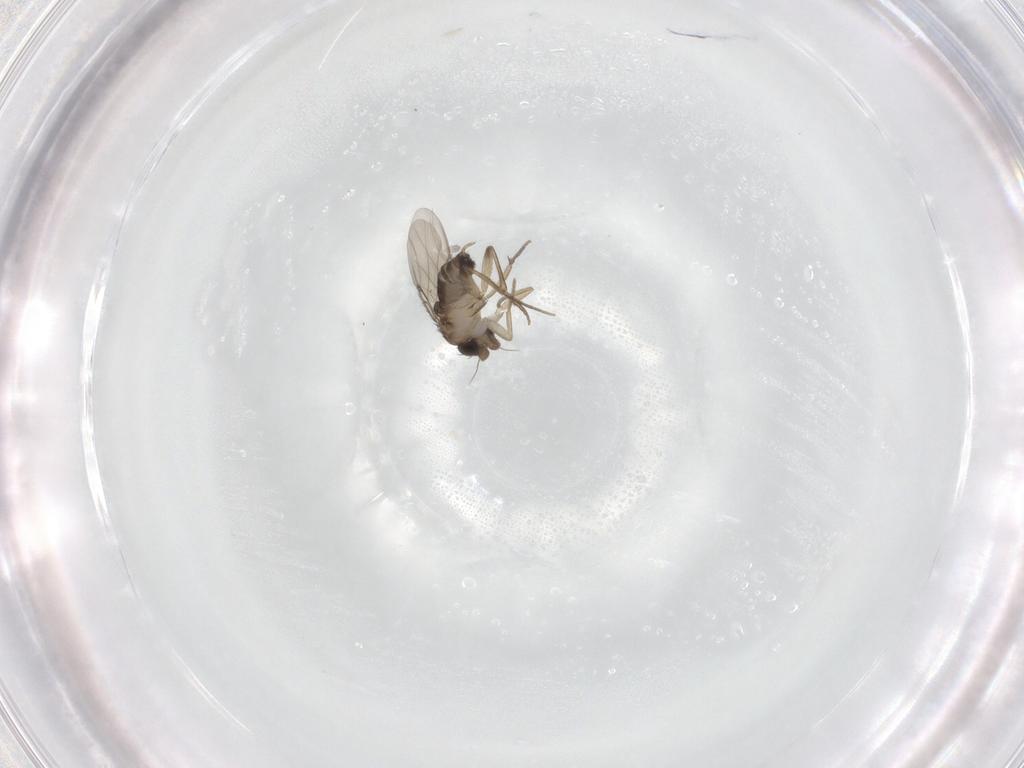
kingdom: Animalia
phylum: Arthropoda
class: Insecta
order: Diptera
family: Phoridae
